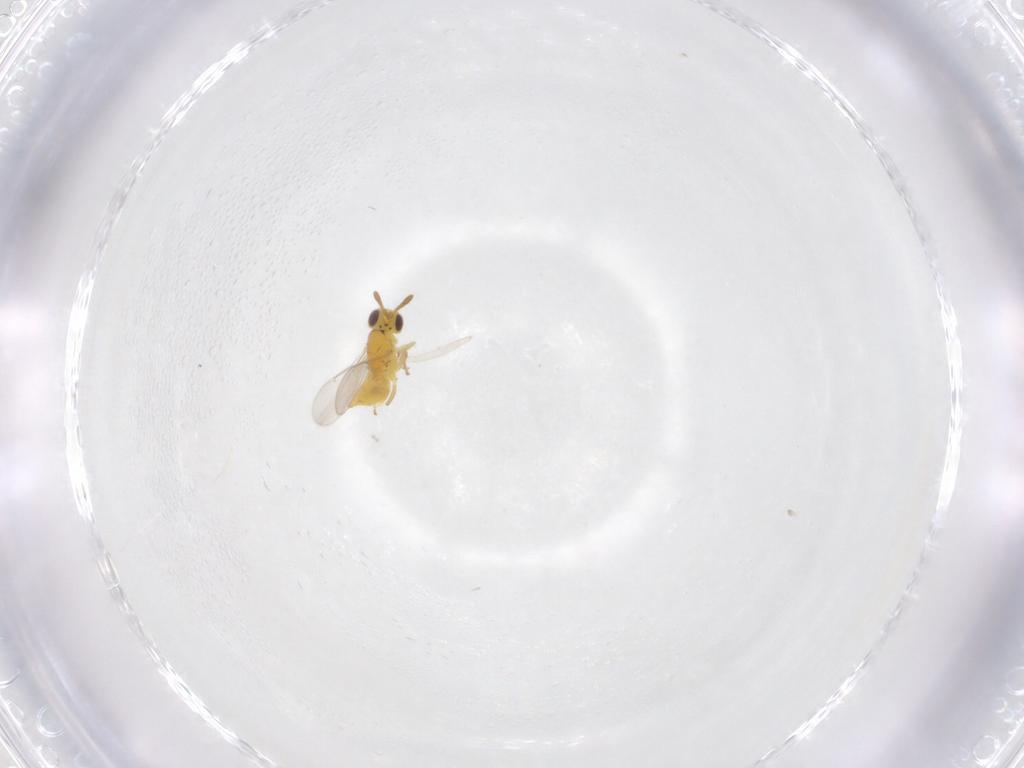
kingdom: Animalia
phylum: Arthropoda
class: Insecta
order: Hymenoptera
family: Aphelinidae
